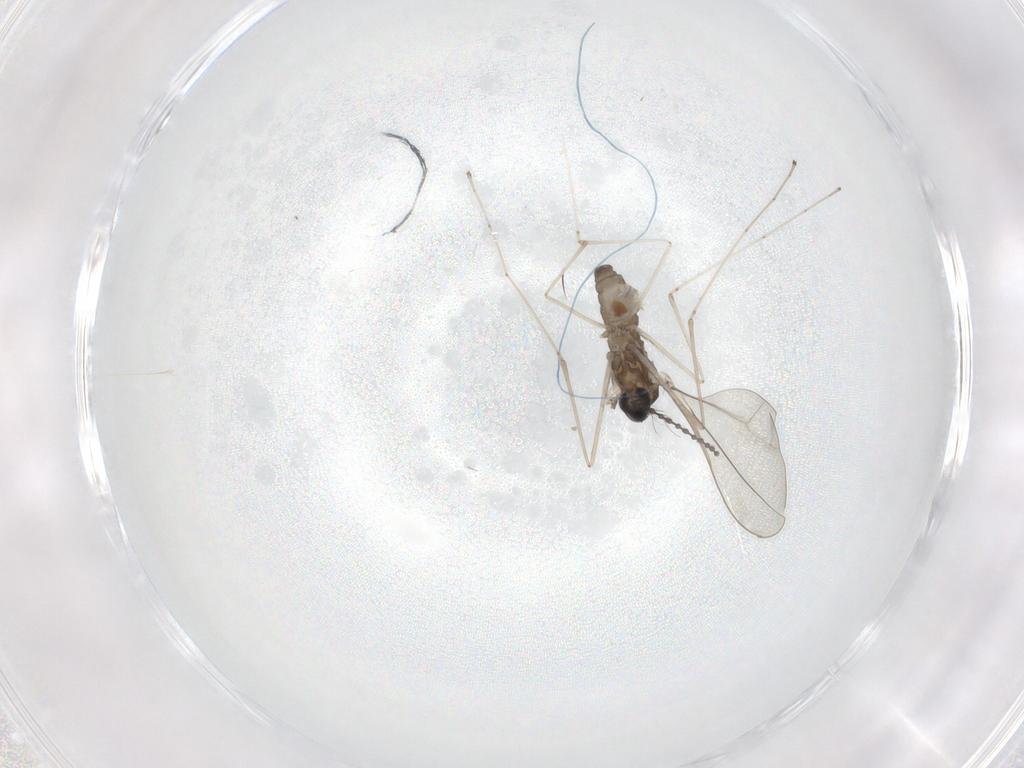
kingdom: Animalia
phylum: Arthropoda
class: Insecta
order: Diptera
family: Cecidomyiidae
